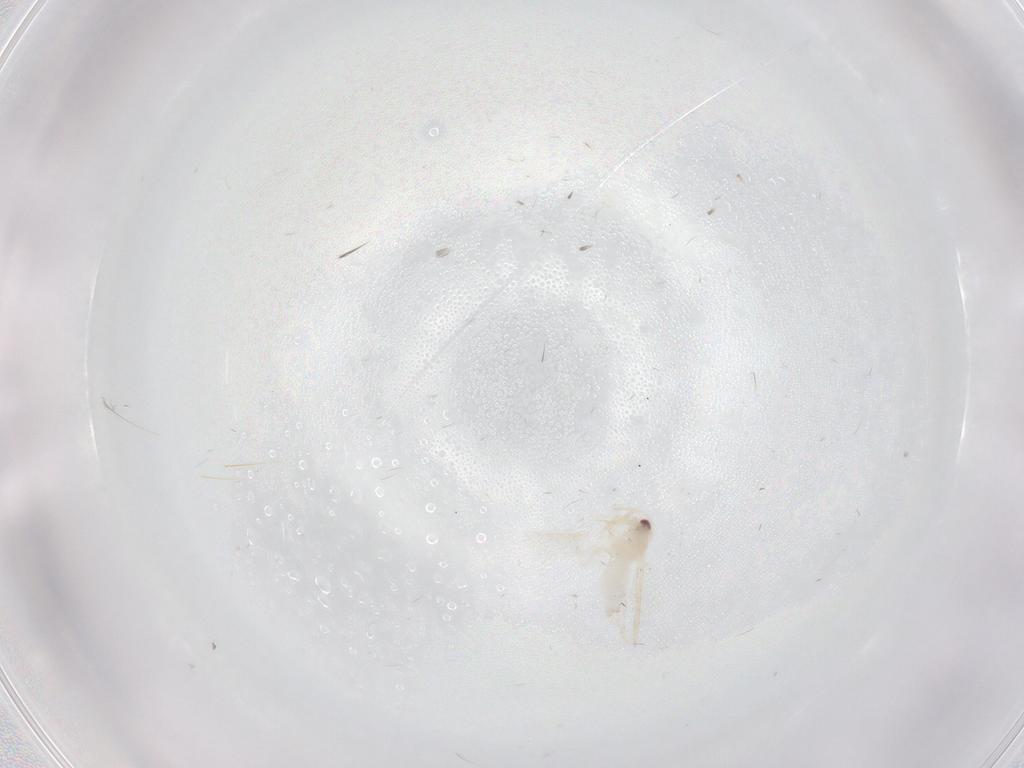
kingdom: Animalia
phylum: Arthropoda
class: Insecta
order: Hemiptera
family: Aleyrodidae
